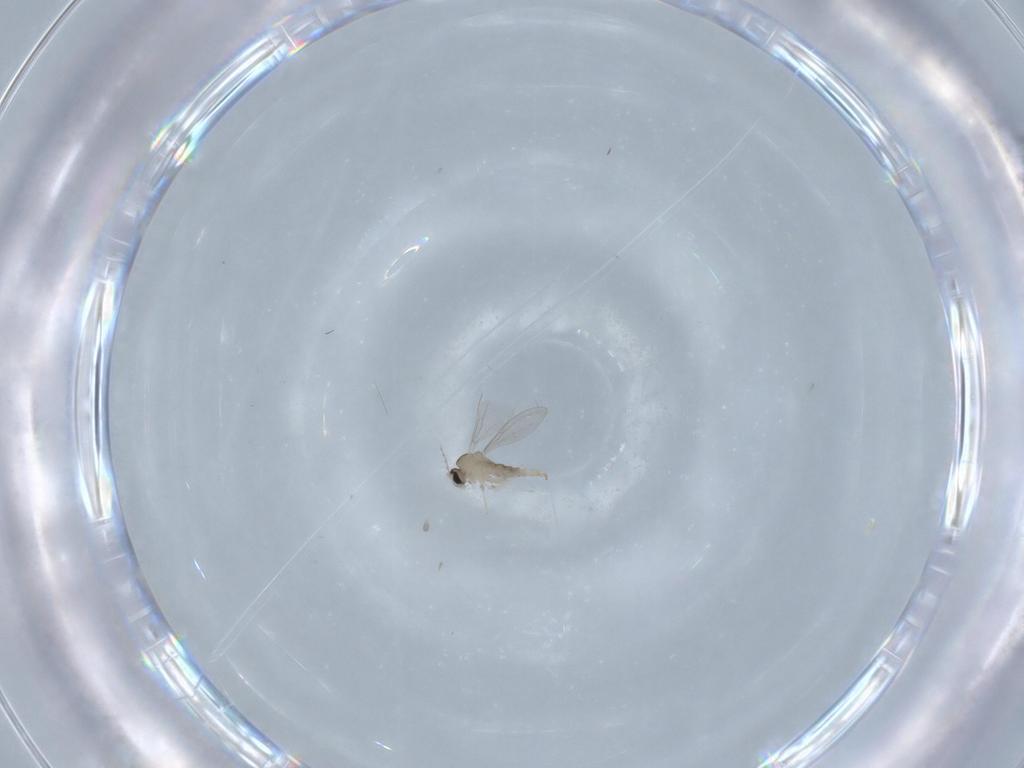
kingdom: Animalia
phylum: Arthropoda
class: Insecta
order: Diptera
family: Cecidomyiidae
